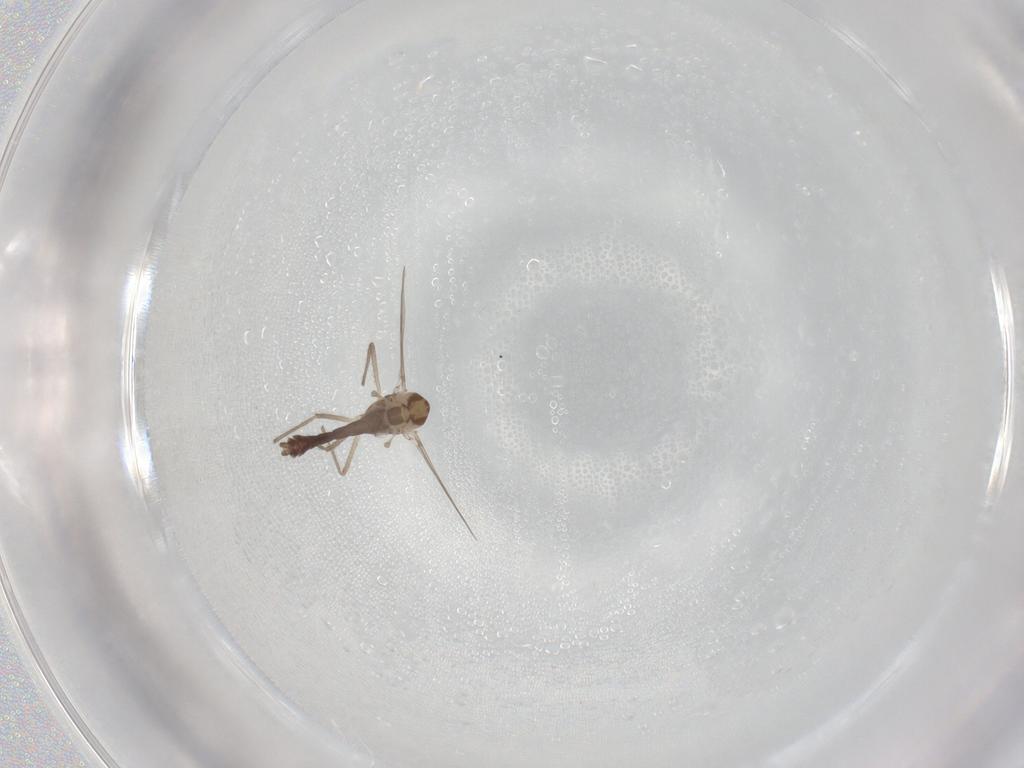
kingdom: Animalia
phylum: Arthropoda
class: Insecta
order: Diptera
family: Chironomidae
